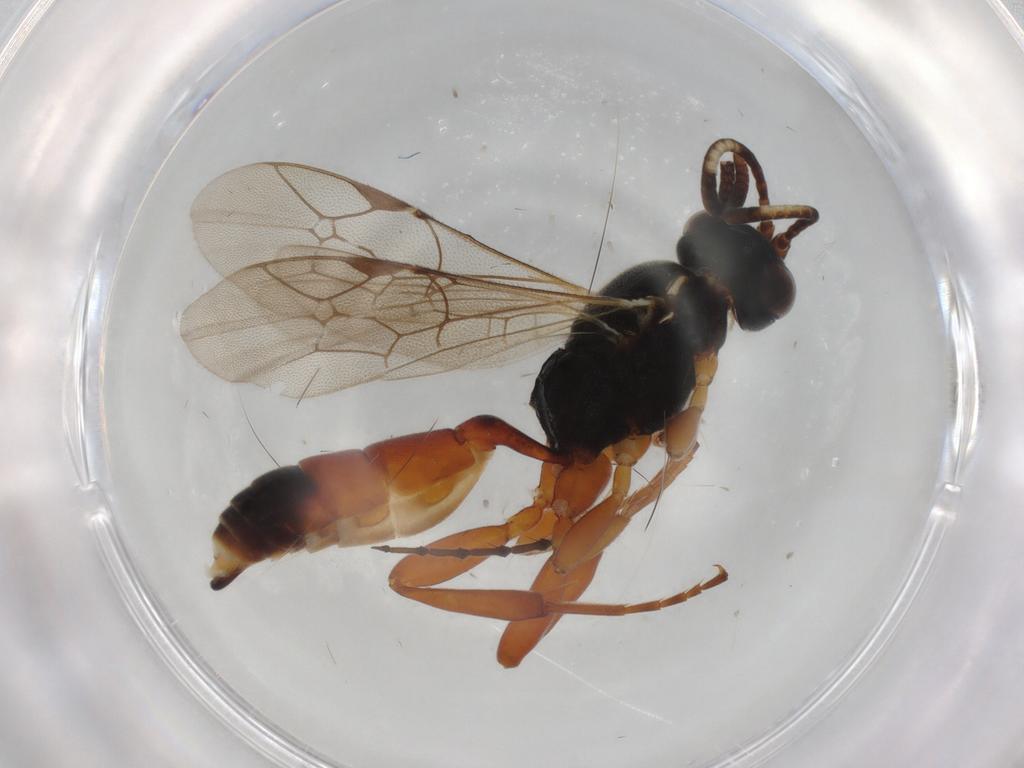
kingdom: Animalia
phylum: Arthropoda
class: Insecta
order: Hymenoptera
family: Ichneumonidae
